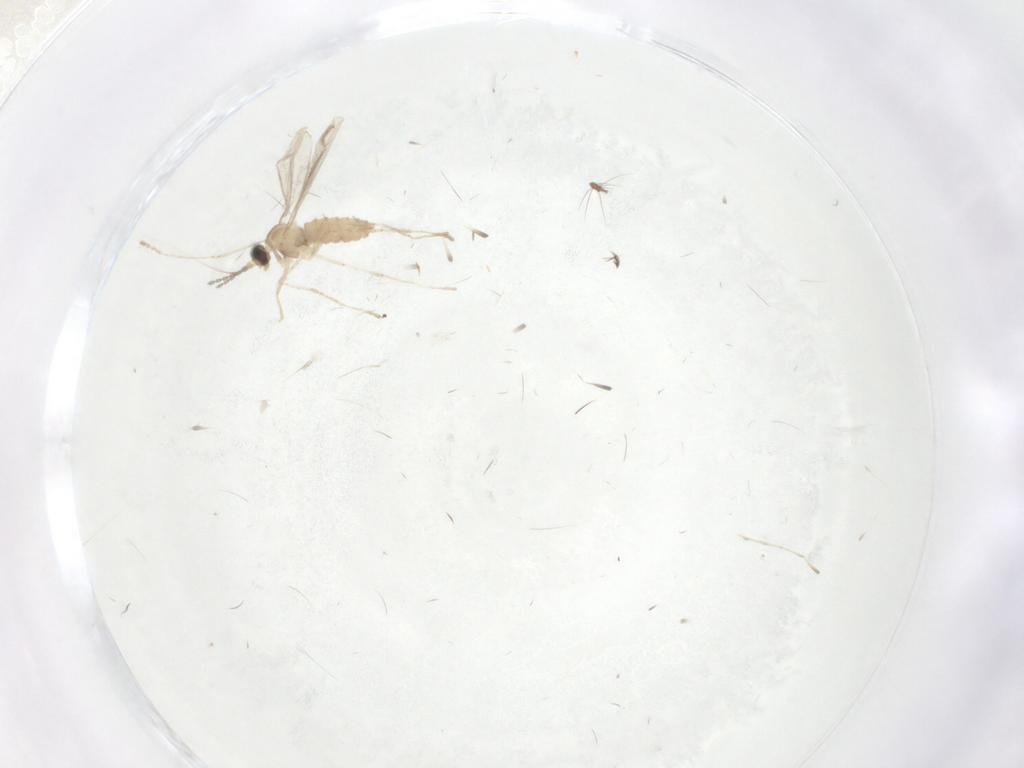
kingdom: Animalia
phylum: Arthropoda
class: Insecta
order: Diptera
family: Cecidomyiidae
